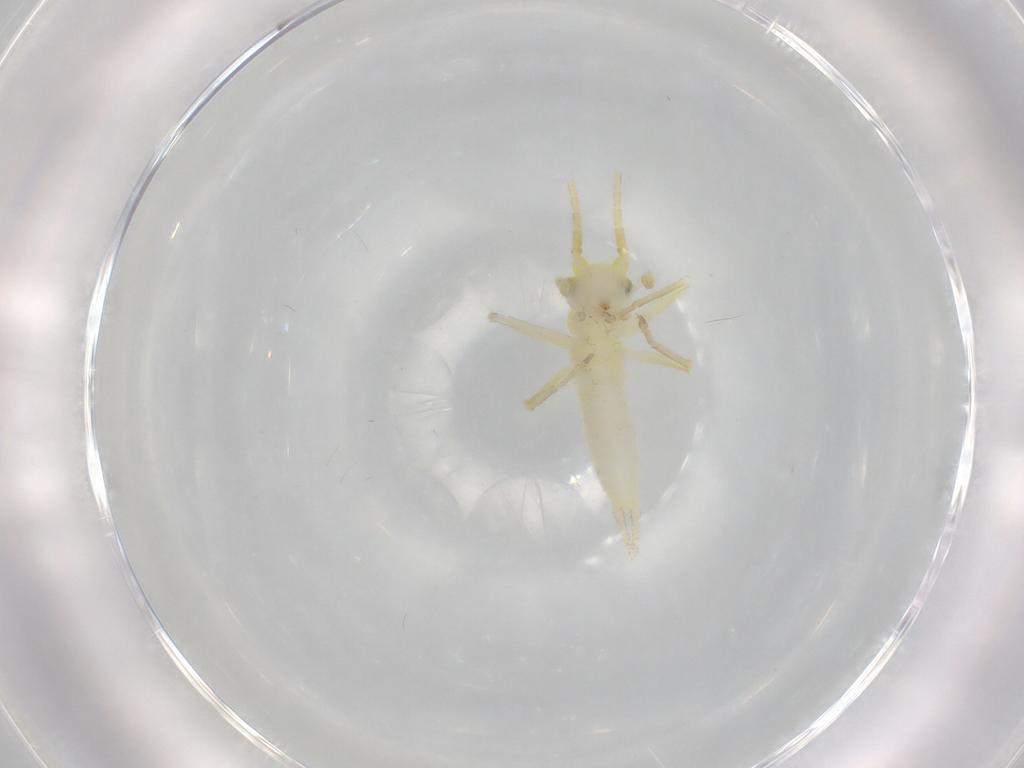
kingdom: Animalia
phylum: Arthropoda
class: Insecta
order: Orthoptera
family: Trigonidiidae
